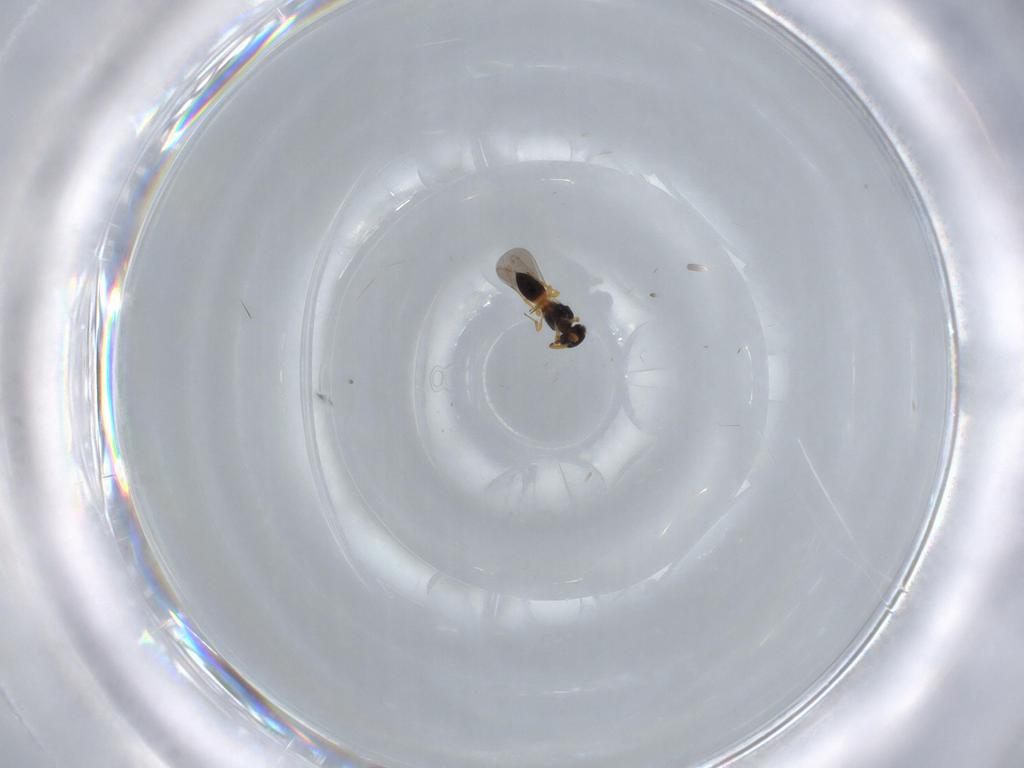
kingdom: Animalia
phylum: Arthropoda
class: Insecta
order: Hymenoptera
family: Platygastridae
